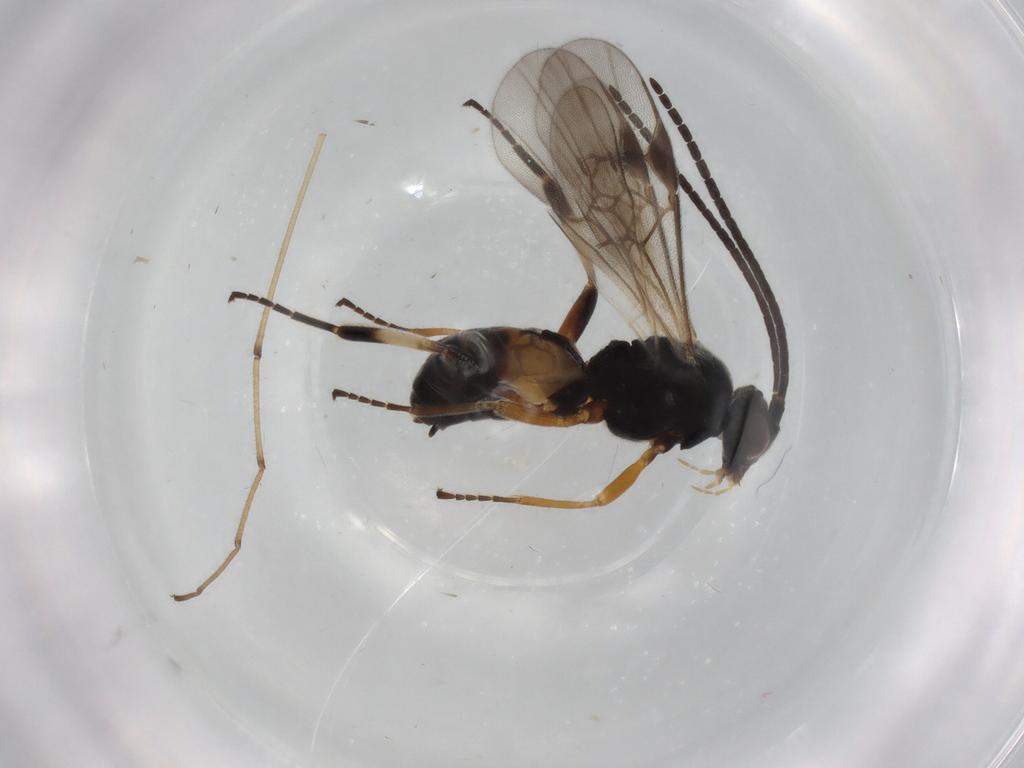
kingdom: Animalia
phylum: Arthropoda
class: Insecta
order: Hymenoptera
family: Braconidae
